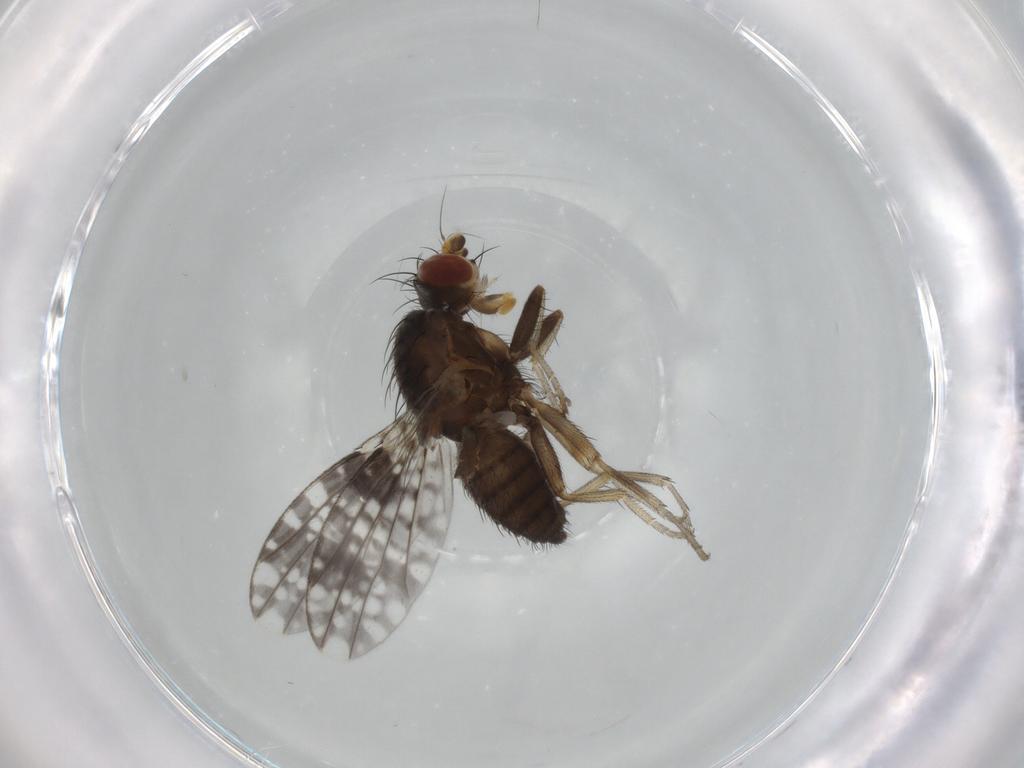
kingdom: Animalia
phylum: Arthropoda
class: Insecta
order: Diptera
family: Tephritidae
